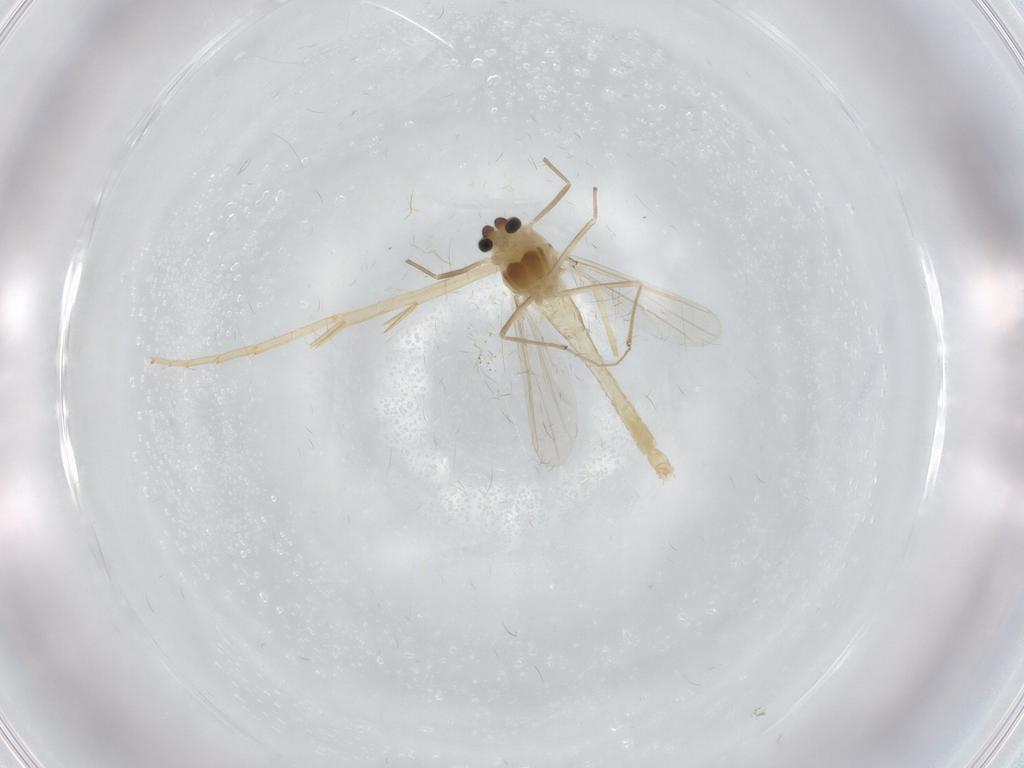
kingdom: Animalia
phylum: Arthropoda
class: Insecta
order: Diptera
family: Chironomidae
